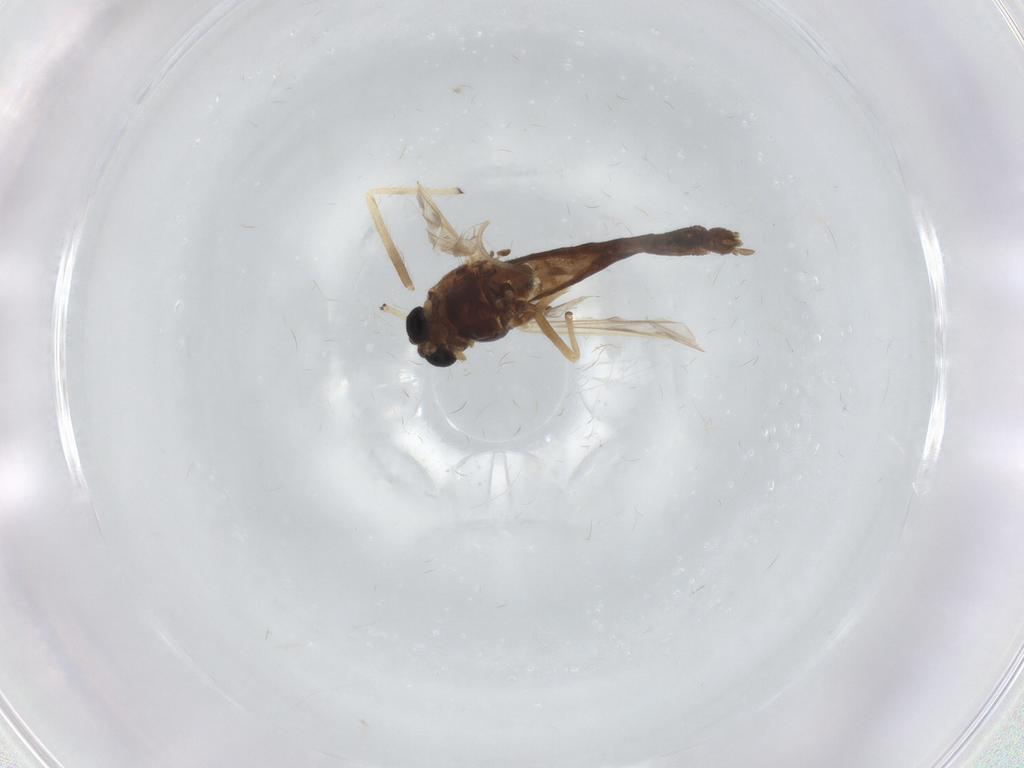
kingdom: Animalia
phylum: Arthropoda
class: Insecta
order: Diptera
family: Chironomidae
